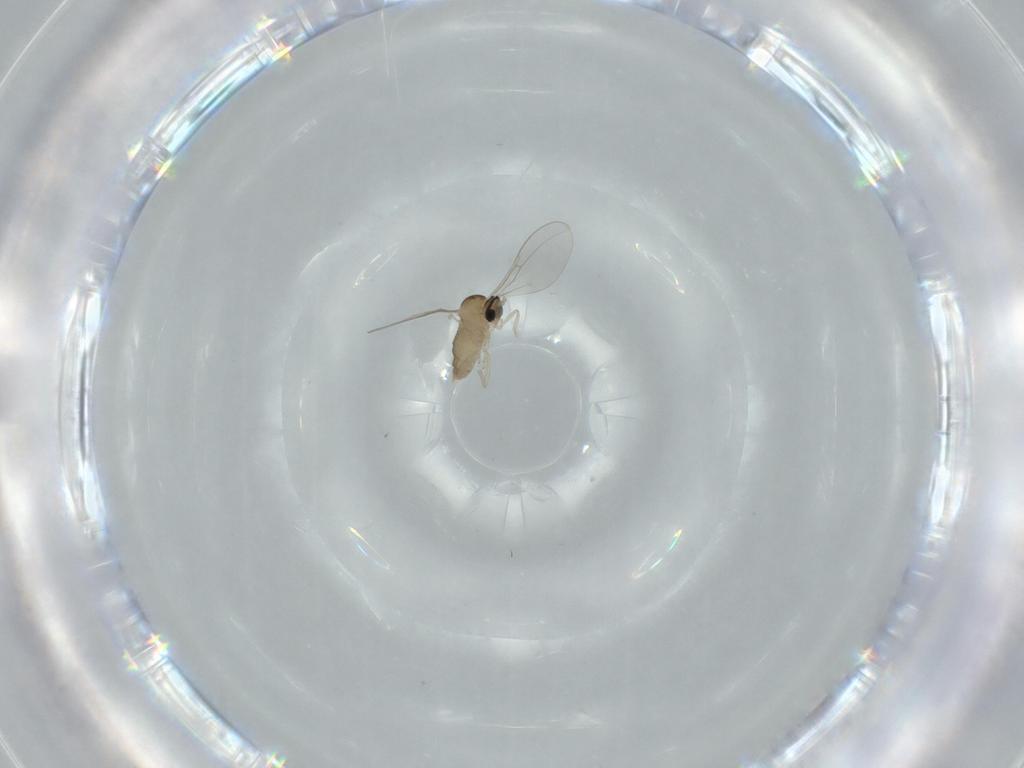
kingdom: Animalia
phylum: Arthropoda
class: Insecta
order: Diptera
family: Cecidomyiidae
